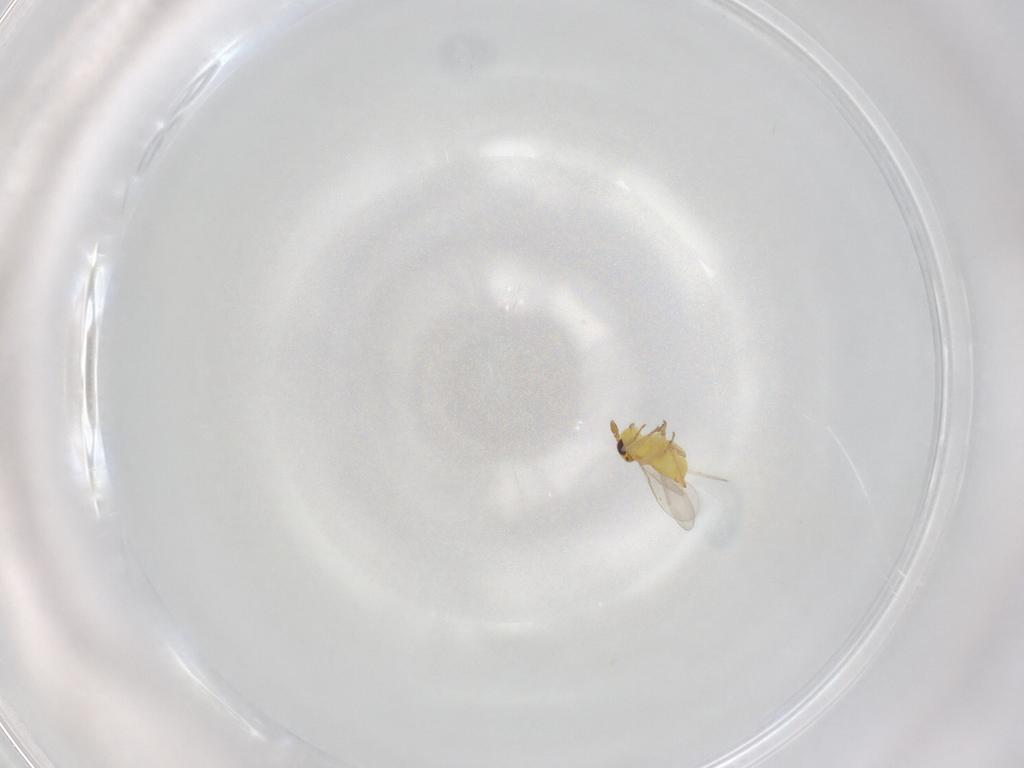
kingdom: Animalia
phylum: Arthropoda
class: Insecta
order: Hymenoptera
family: Aphelinidae
